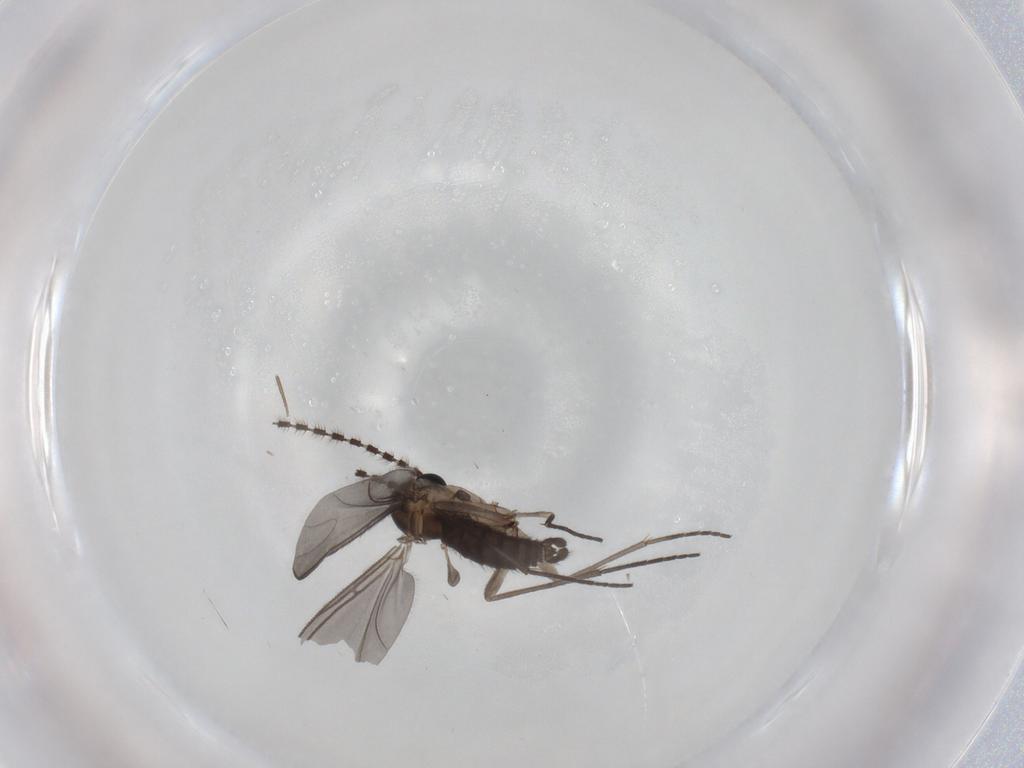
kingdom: Animalia
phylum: Arthropoda
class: Insecta
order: Diptera
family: Sciaridae
